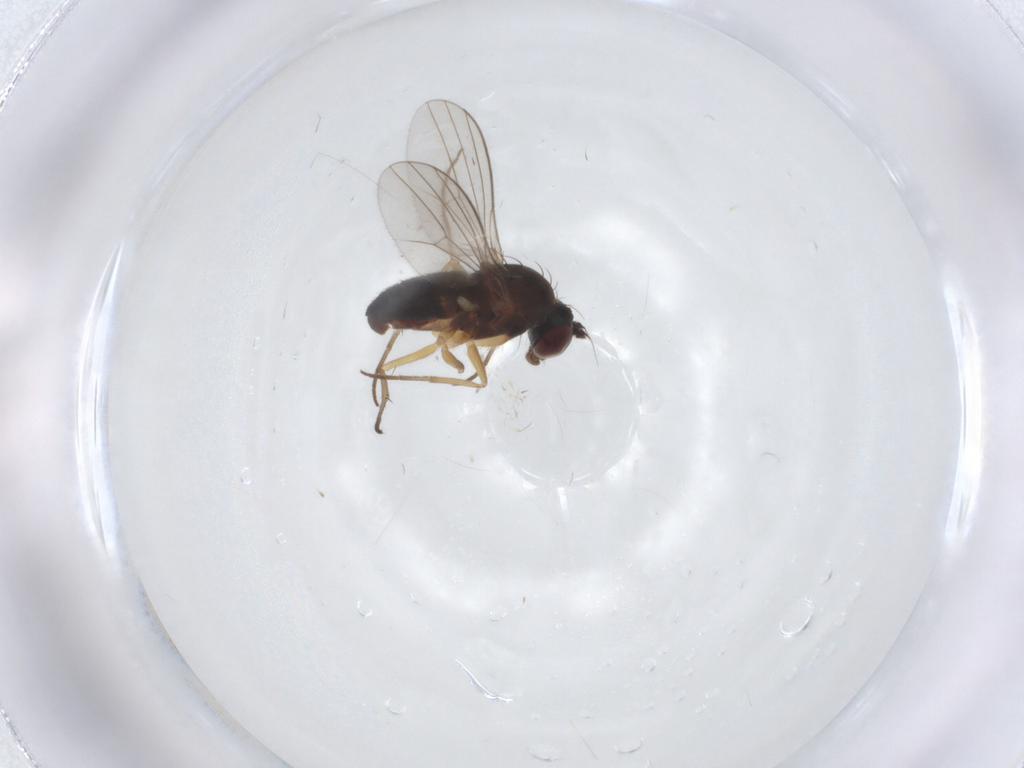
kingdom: Animalia
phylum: Arthropoda
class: Insecta
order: Diptera
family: Dolichopodidae
